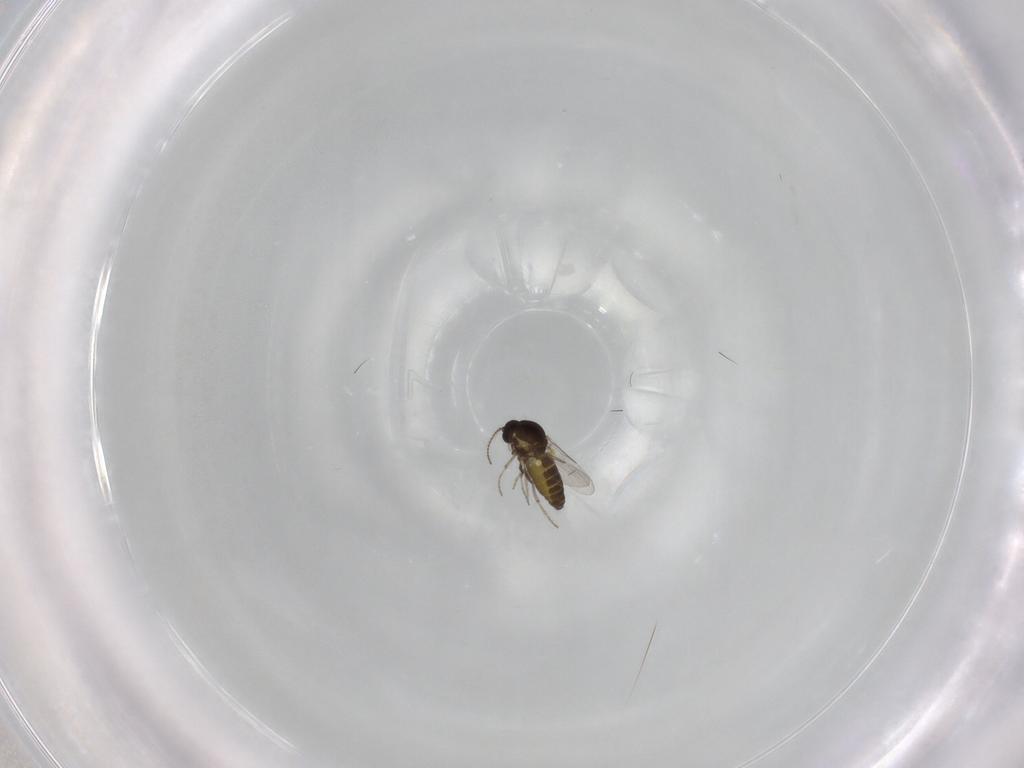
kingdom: Animalia
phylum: Arthropoda
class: Insecta
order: Diptera
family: Ceratopogonidae
